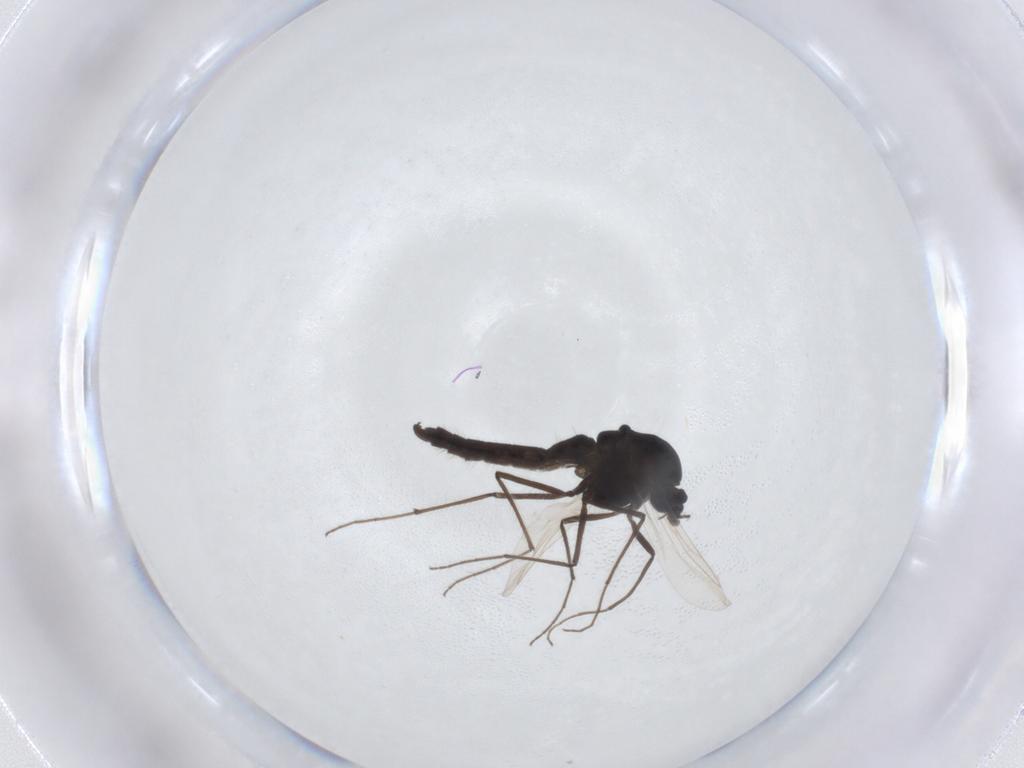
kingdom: Animalia
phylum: Arthropoda
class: Insecta
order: Diptera
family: Chironomidae
